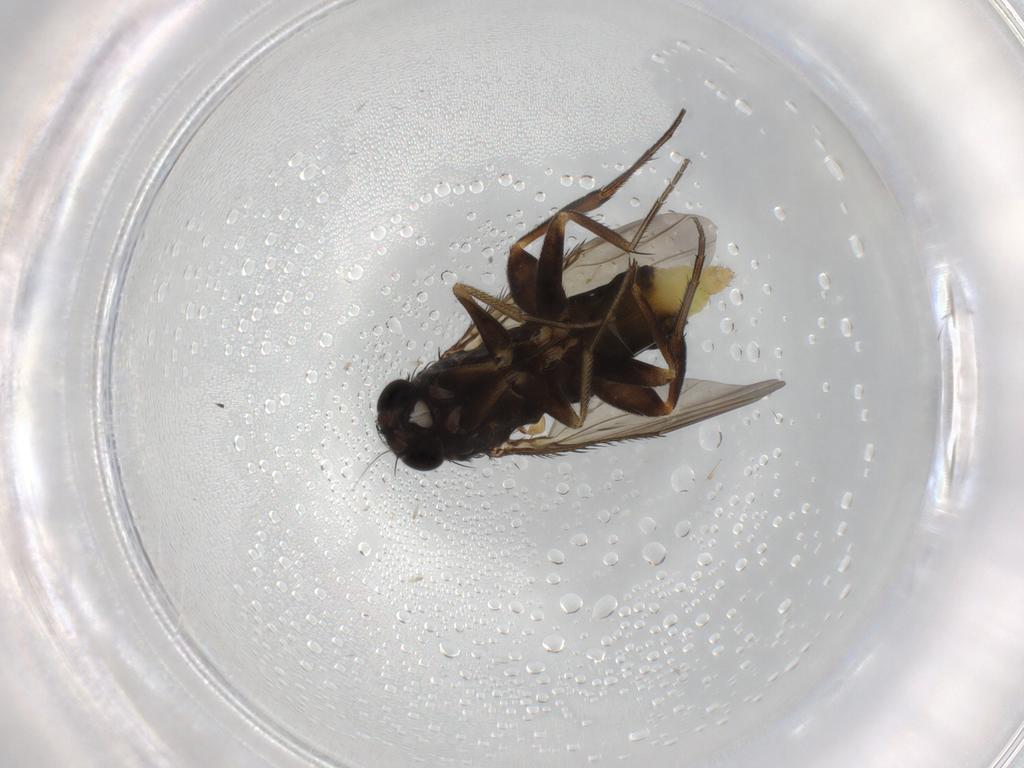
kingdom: Animalia
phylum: Arthropoda
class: Insecta
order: Diptera
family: Phoridae
